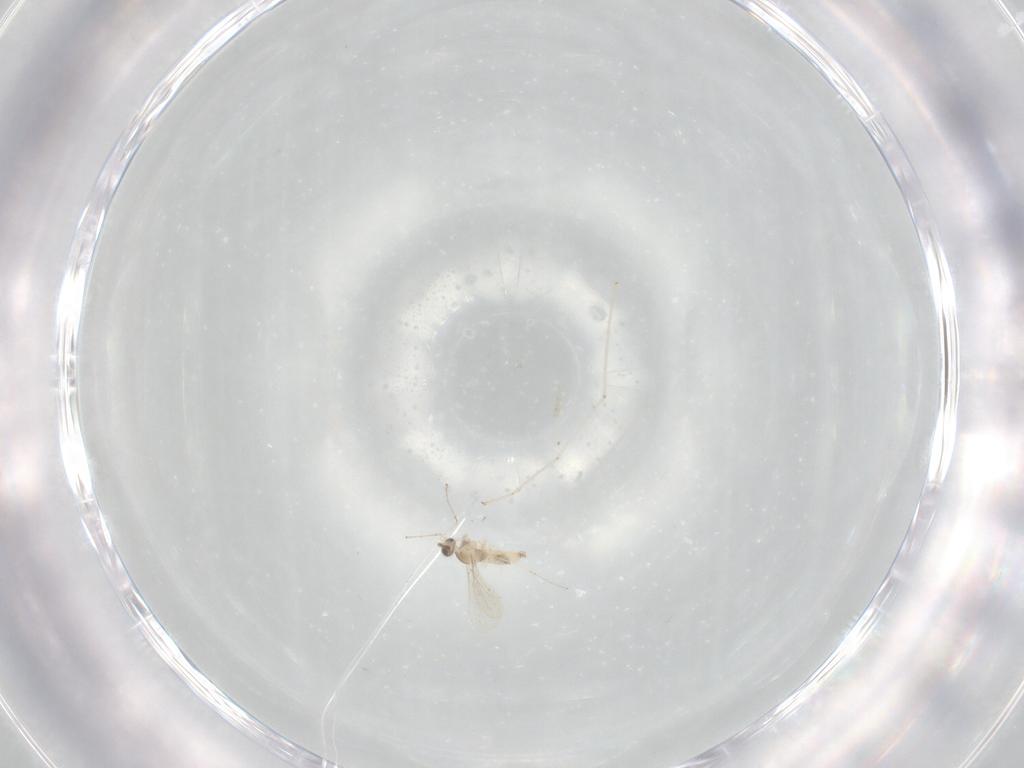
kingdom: Animalia
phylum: Arthropoda
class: Insecta
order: Diptera
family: Cecidomyiidae
